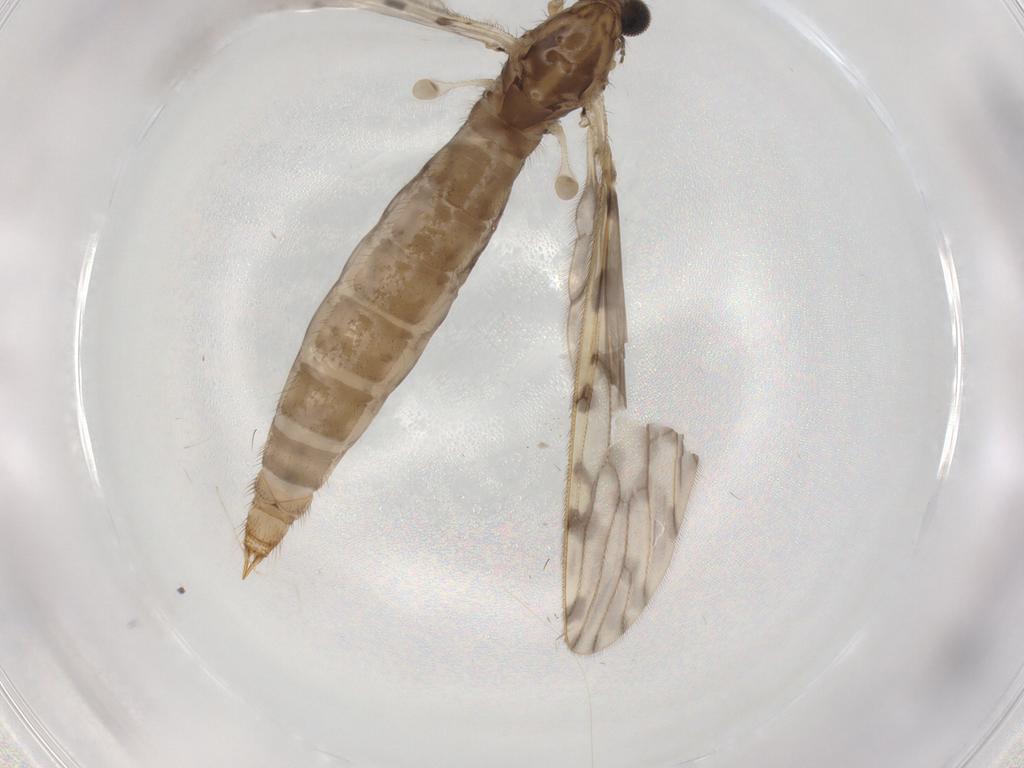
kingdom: Animalia
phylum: Arthropoda
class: Insecta
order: Diptera
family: Limoniidae
